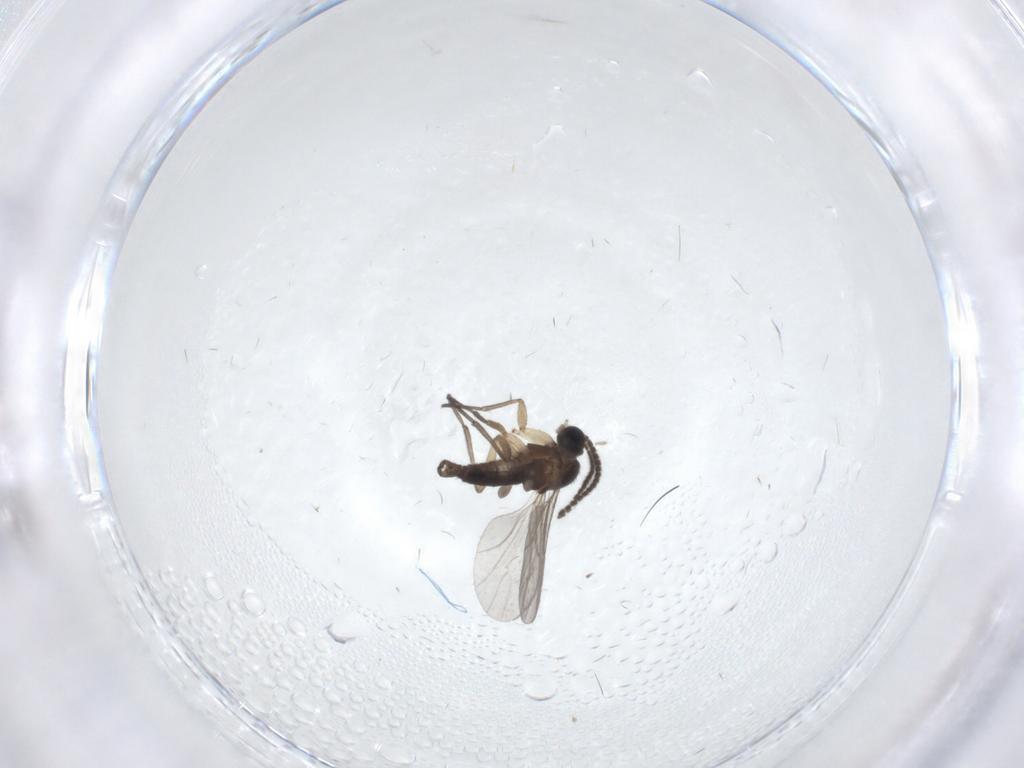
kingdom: Animalia
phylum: Arthropoda
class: Insecta
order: Diptera
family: Sciaridae
